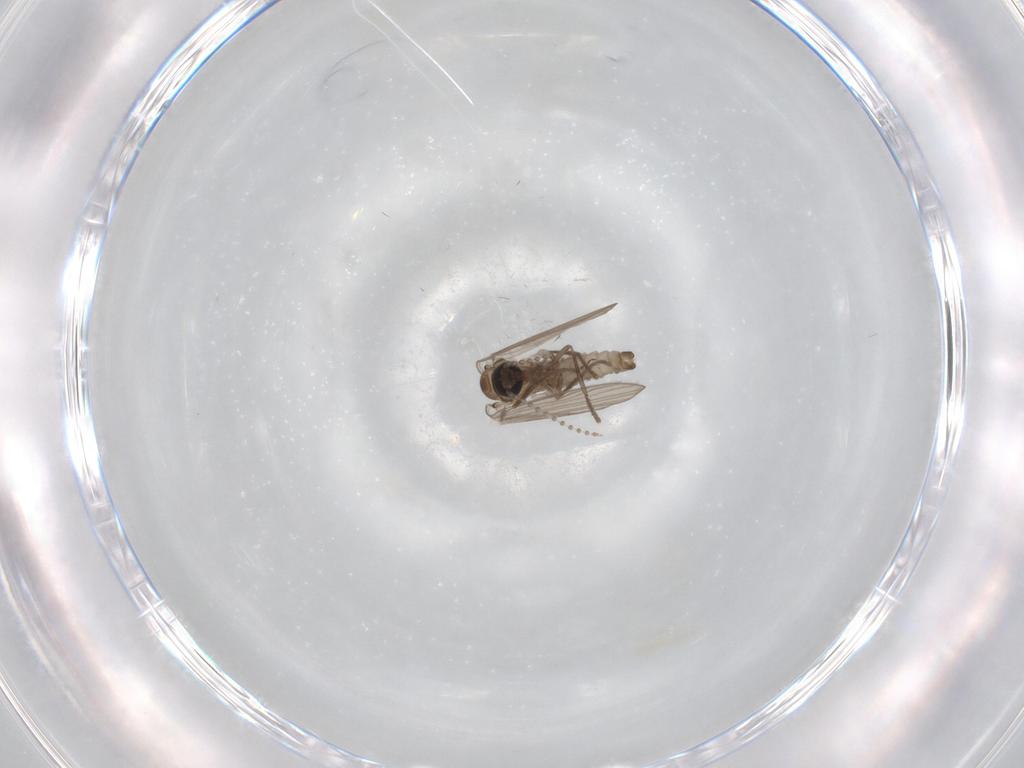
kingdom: Animalia
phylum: Arthropoda
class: Insecta
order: Diptera
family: Psychodidae
